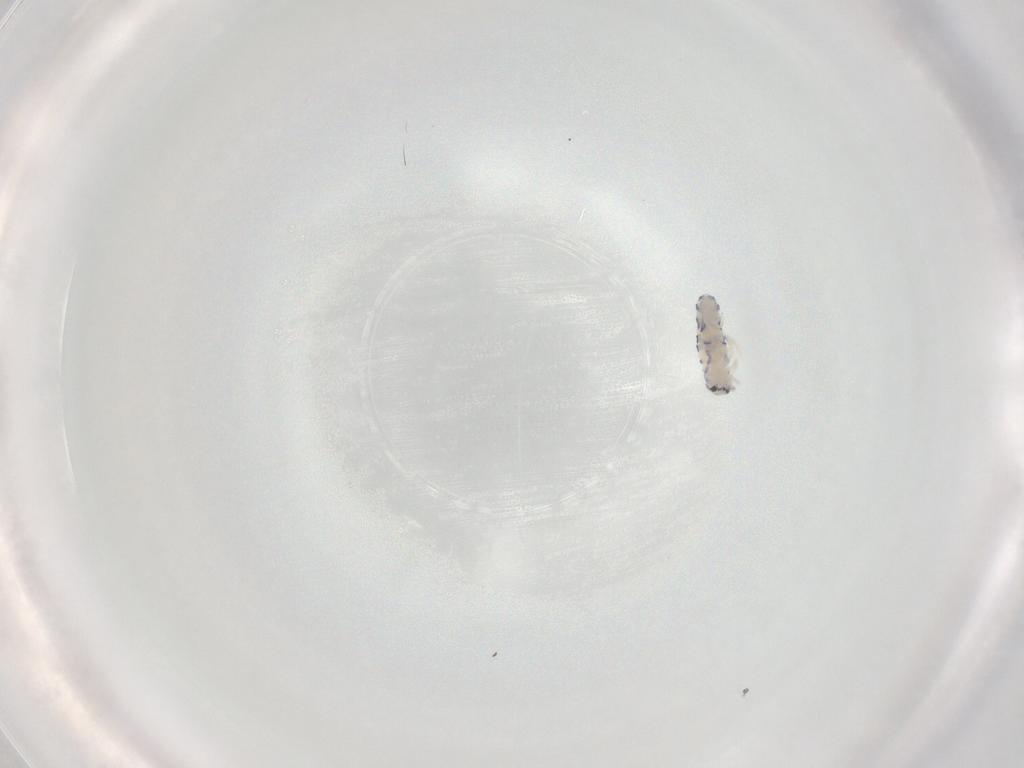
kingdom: Animalia
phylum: Arthropoda
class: Collembola
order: Entomobryomorpha
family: Entomobryidae
